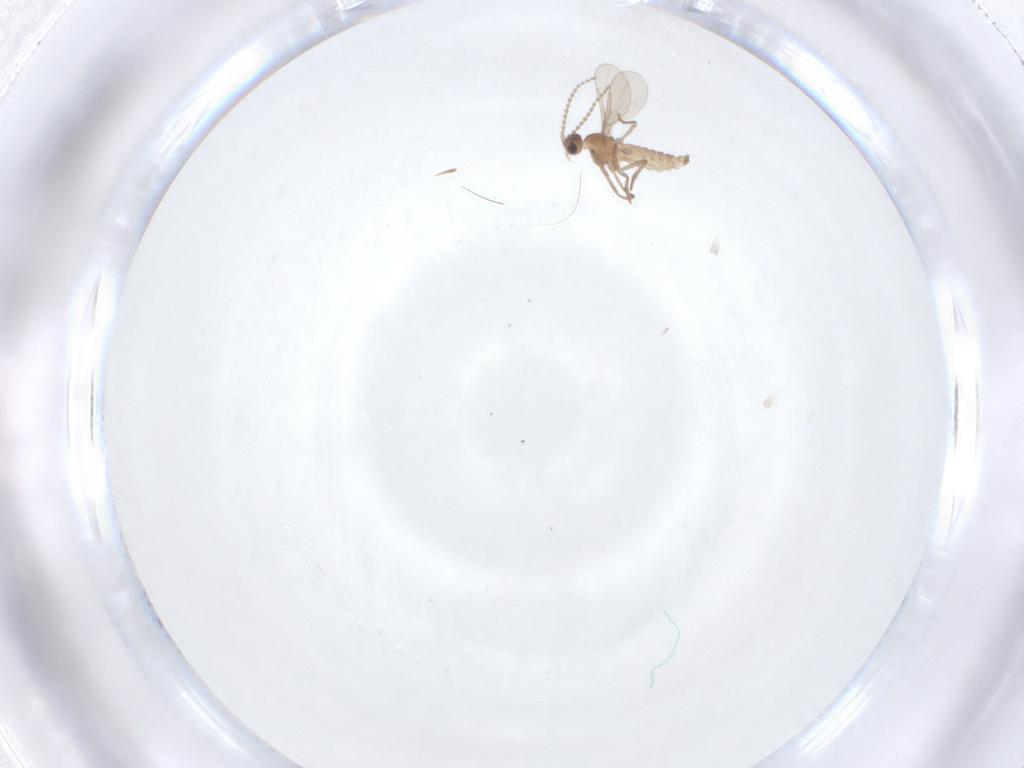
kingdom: Animalia
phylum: Arthropoda
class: Insecta
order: Diptera
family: Cecidomyiidae
